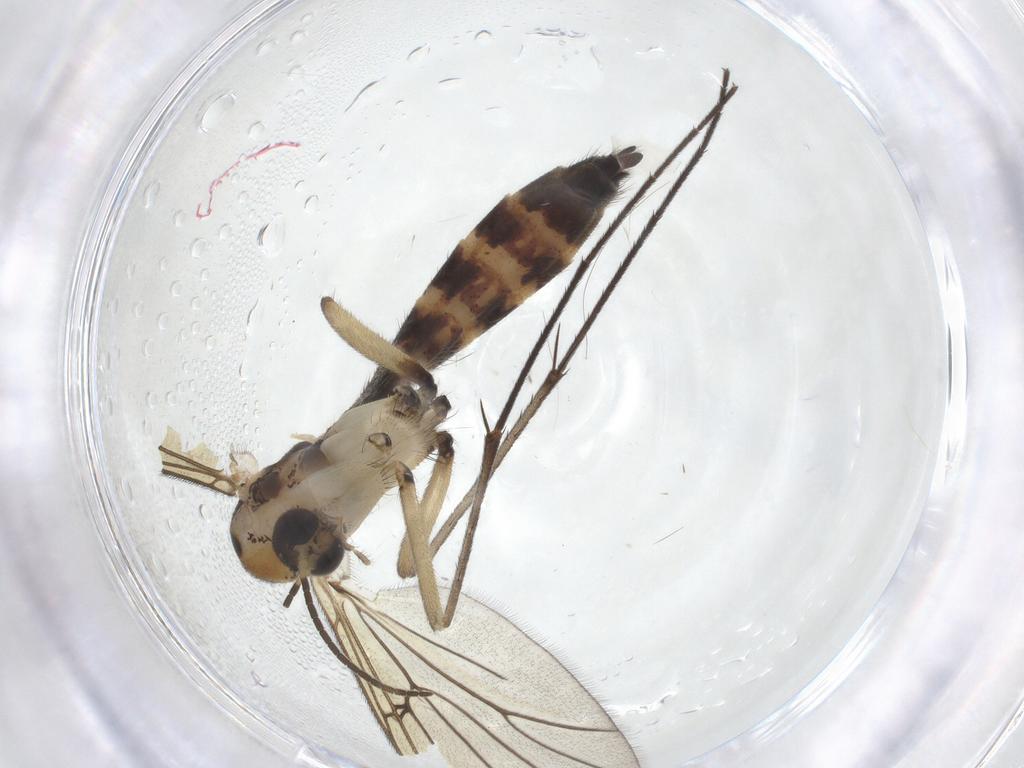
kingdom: Animalia
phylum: Arthropoda
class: Insecta
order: Diptera
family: Mycetophilidae
